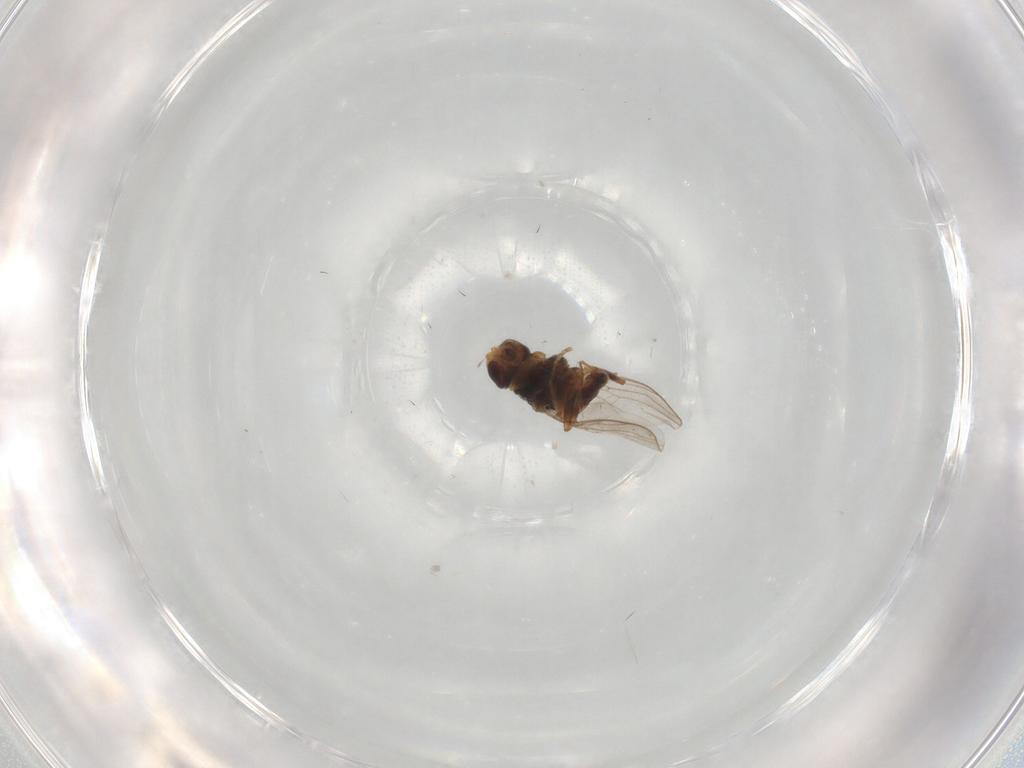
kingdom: Animalia
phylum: Arthropoda
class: Insecta
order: Diptera
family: Chloropidae
